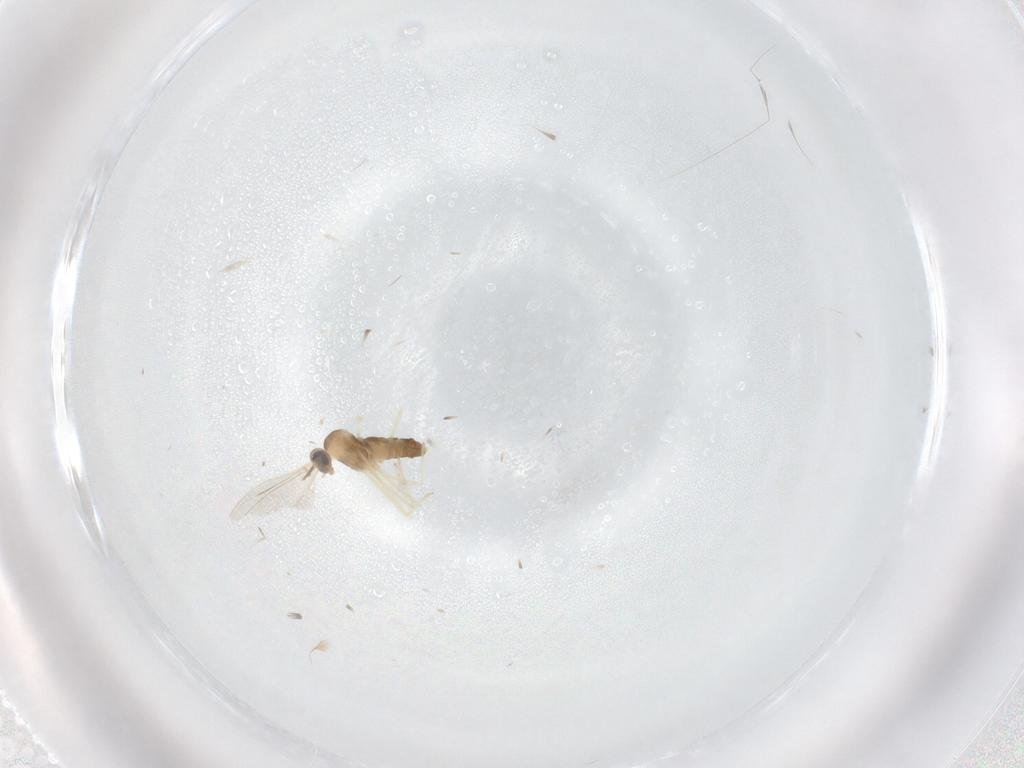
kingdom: Animalia
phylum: Arthropoda
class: Insecta
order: Diptera
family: Cecidomyiidae
